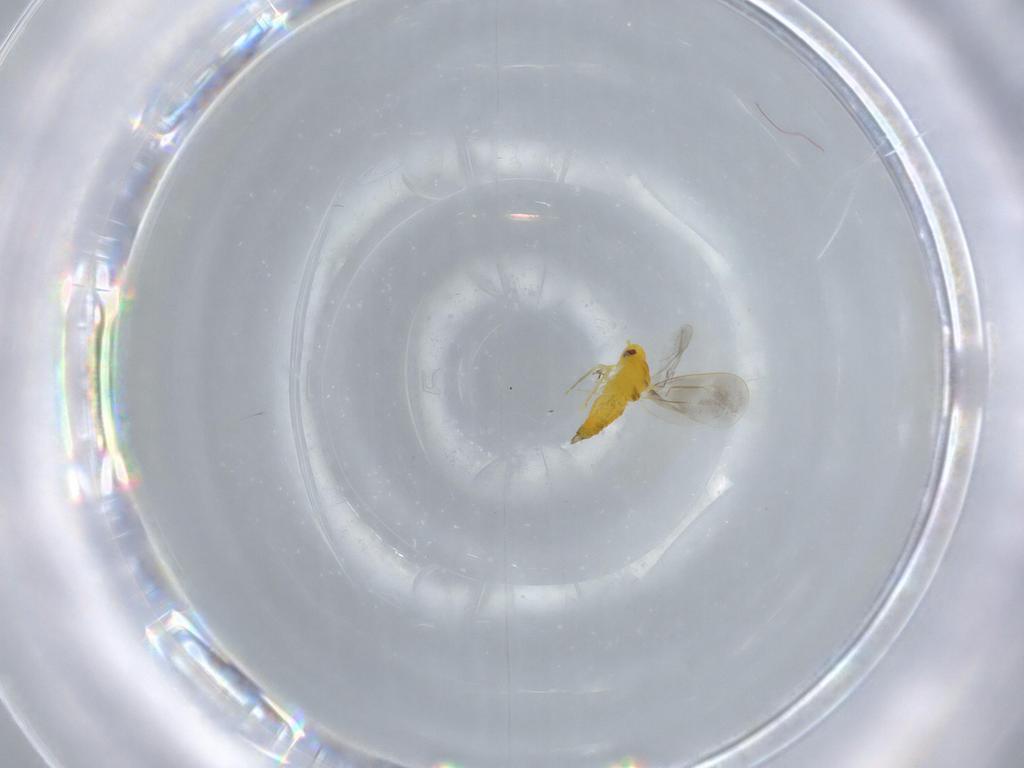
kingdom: Animalia
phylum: Arthropoda
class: Insecta
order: Hemiptera
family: Aleyrodidae
